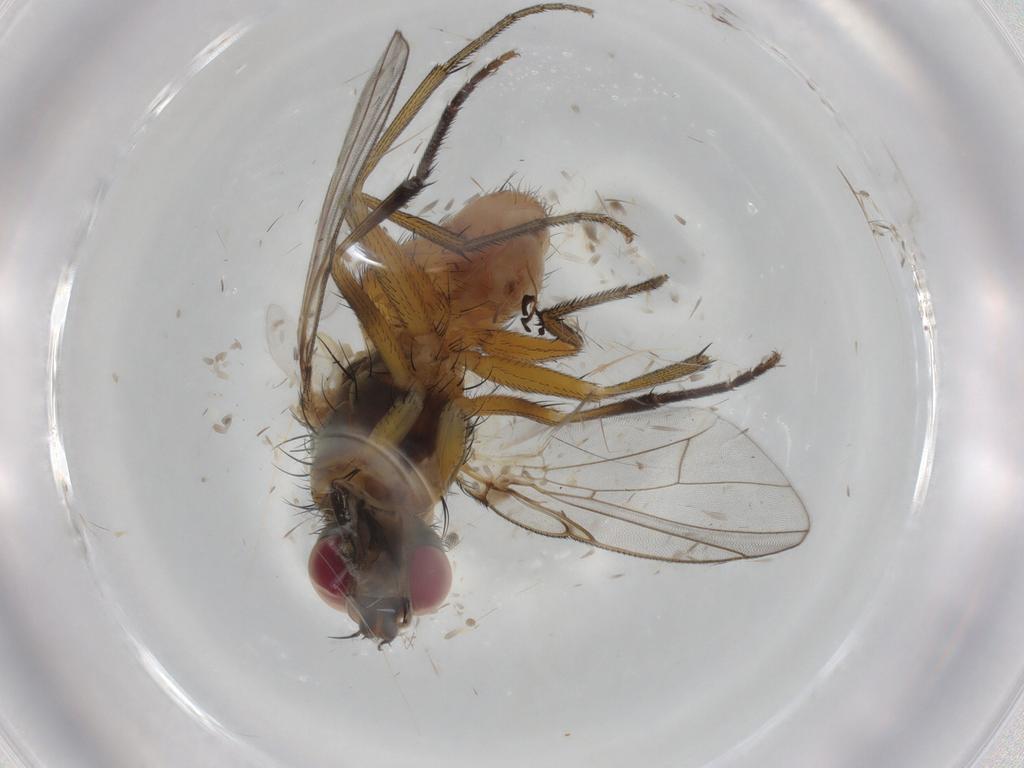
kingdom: Animalia
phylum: Arthropoda
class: Insecta
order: Diptera
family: Muscidae
